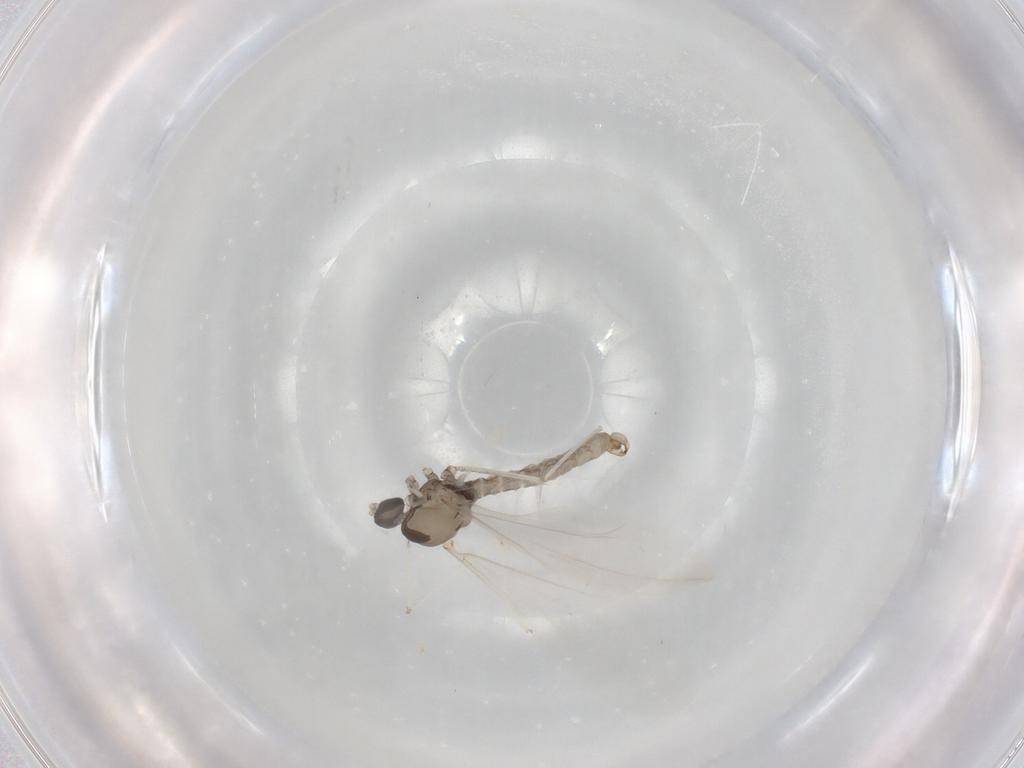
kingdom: Animalia
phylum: Arthropoda
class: Insecta
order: Diptera
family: Cecidomyiidae
